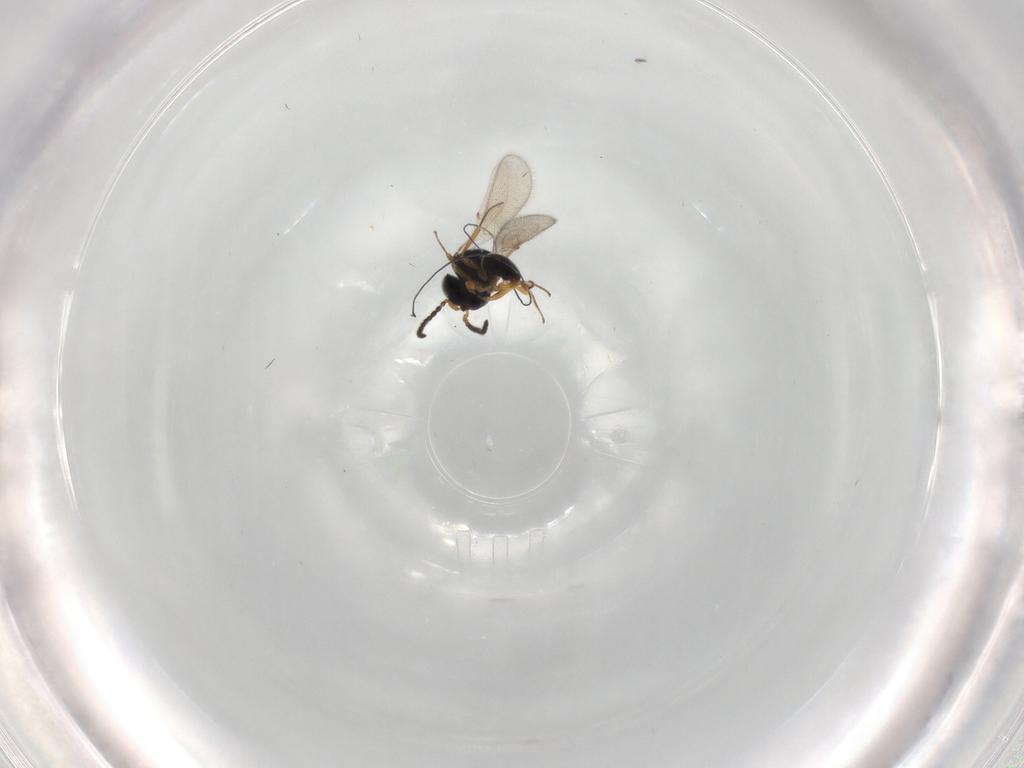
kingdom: Animalia
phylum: Arthropoda
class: Insecta
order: Hymenoptera
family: Scelionidae
